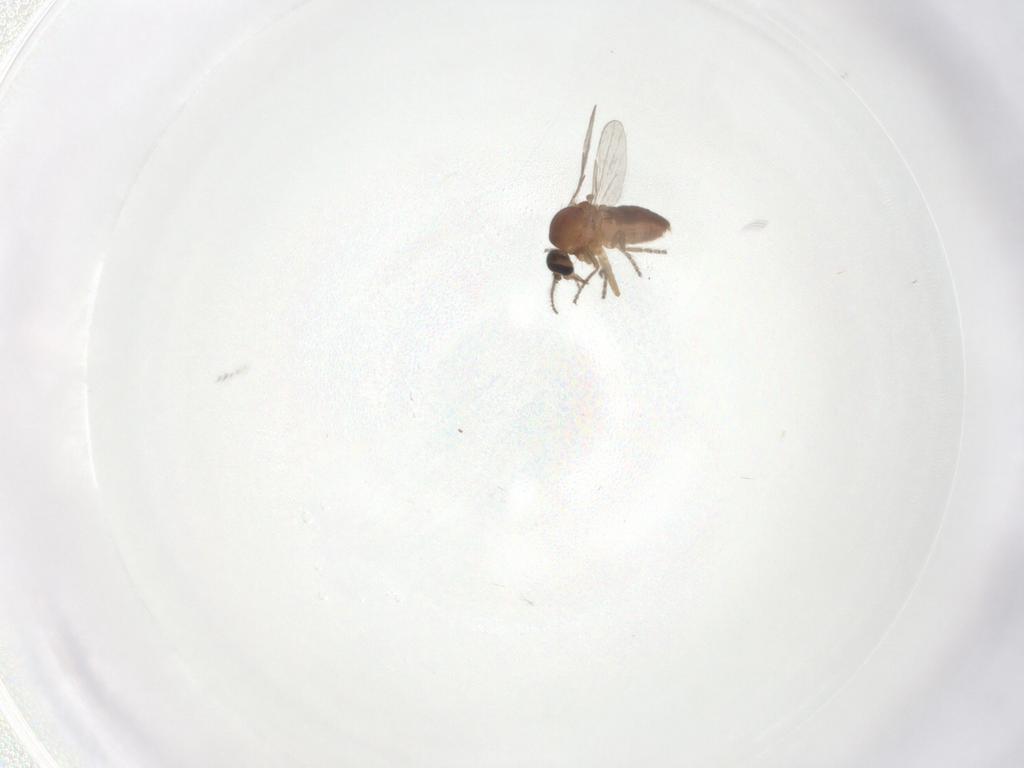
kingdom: Animalia
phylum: Arthropoda
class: Insecta
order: Diptera
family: Ceratopogonidae
